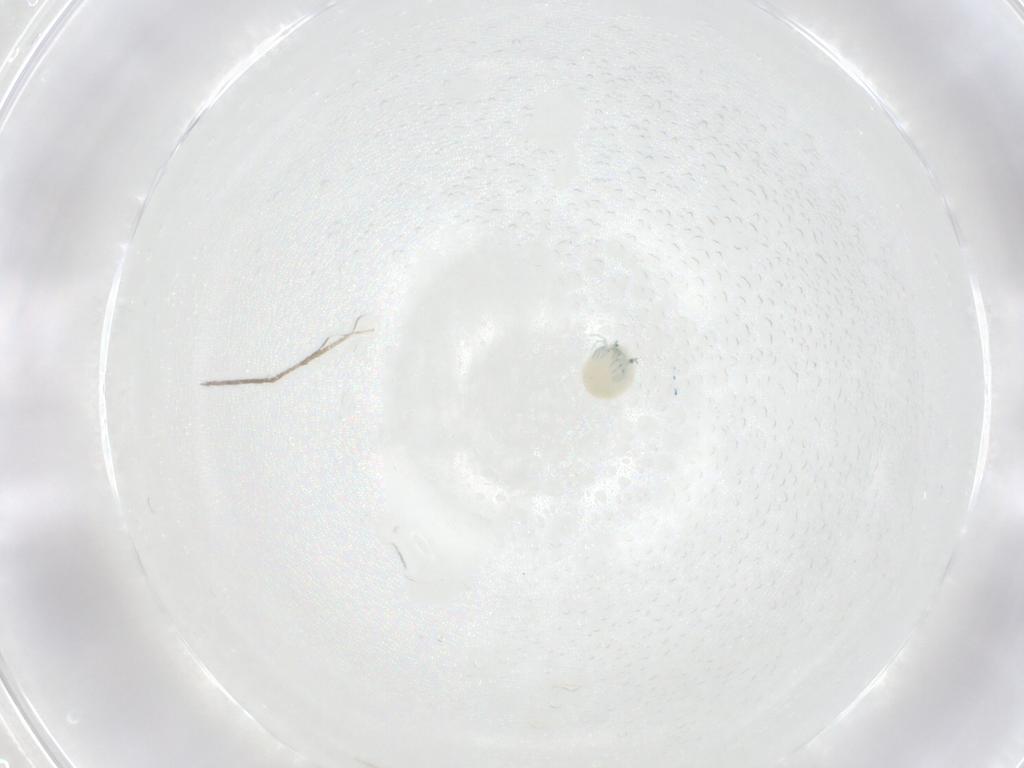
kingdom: Animalia
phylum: Arthropoda
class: Arachnida
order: Trombidiformes
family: Arrenuridae
